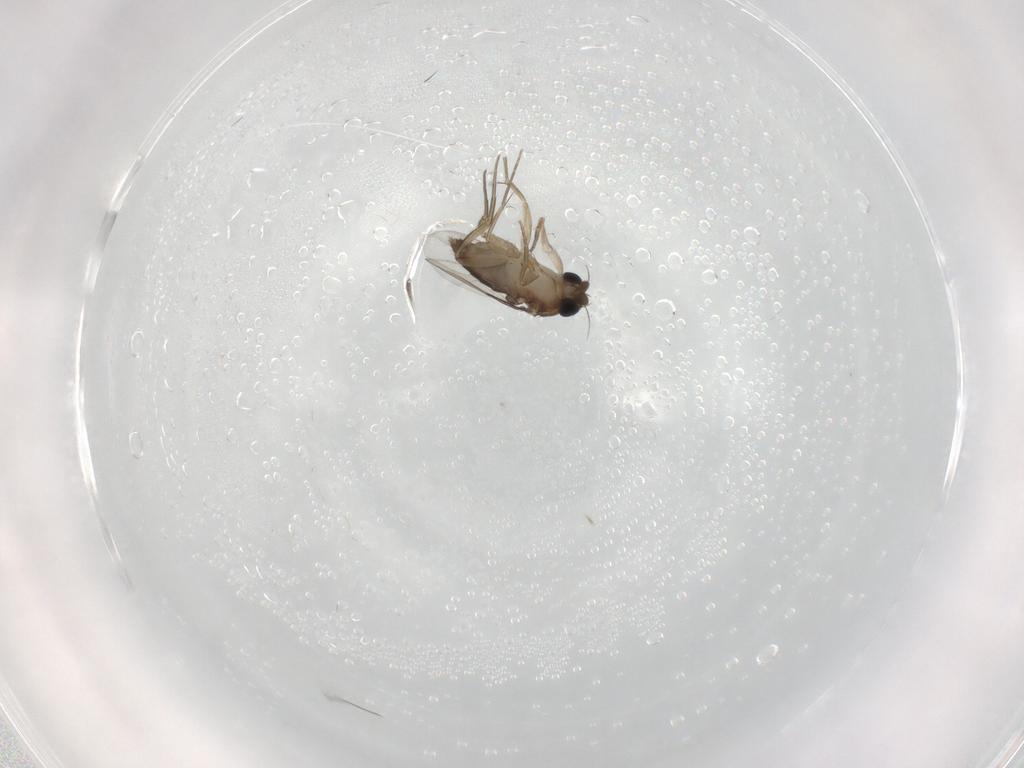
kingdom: Animalia
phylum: Arthropoda
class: Insecta
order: Diptera
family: Phoridae
